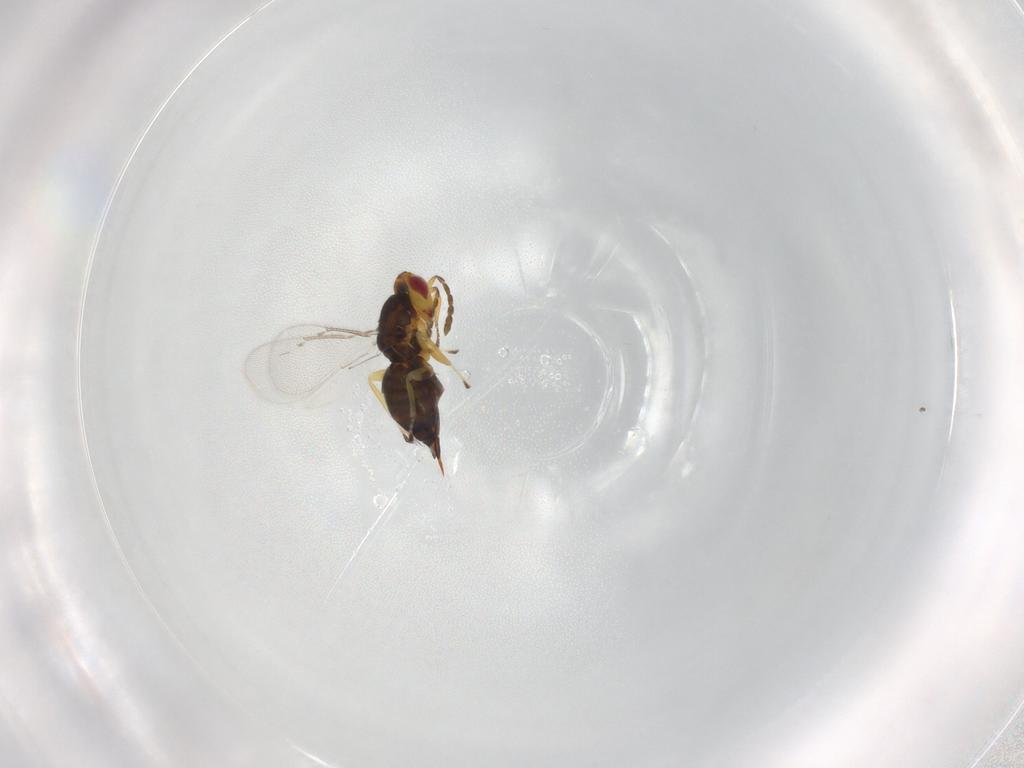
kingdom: Animalia
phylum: Arthropoda
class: Insecta
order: Hymenoptera
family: Eulophidae
